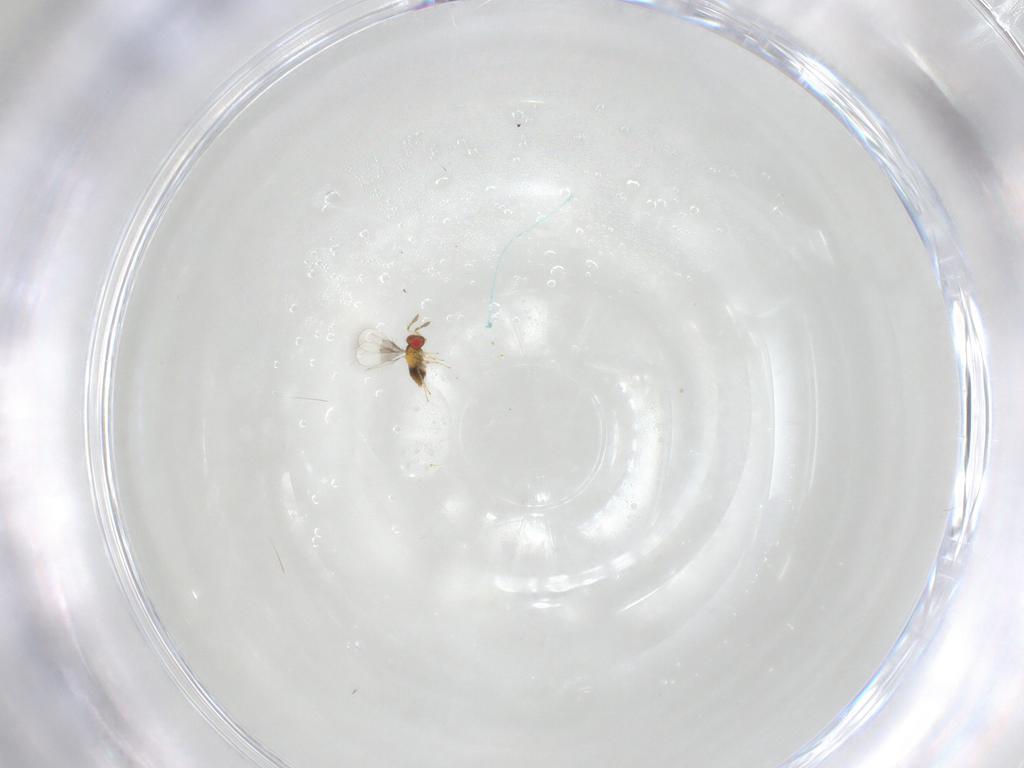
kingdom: Animalia
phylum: Arthropoda
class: Insecta
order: Hymenoptera
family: Trichogrammatidae
